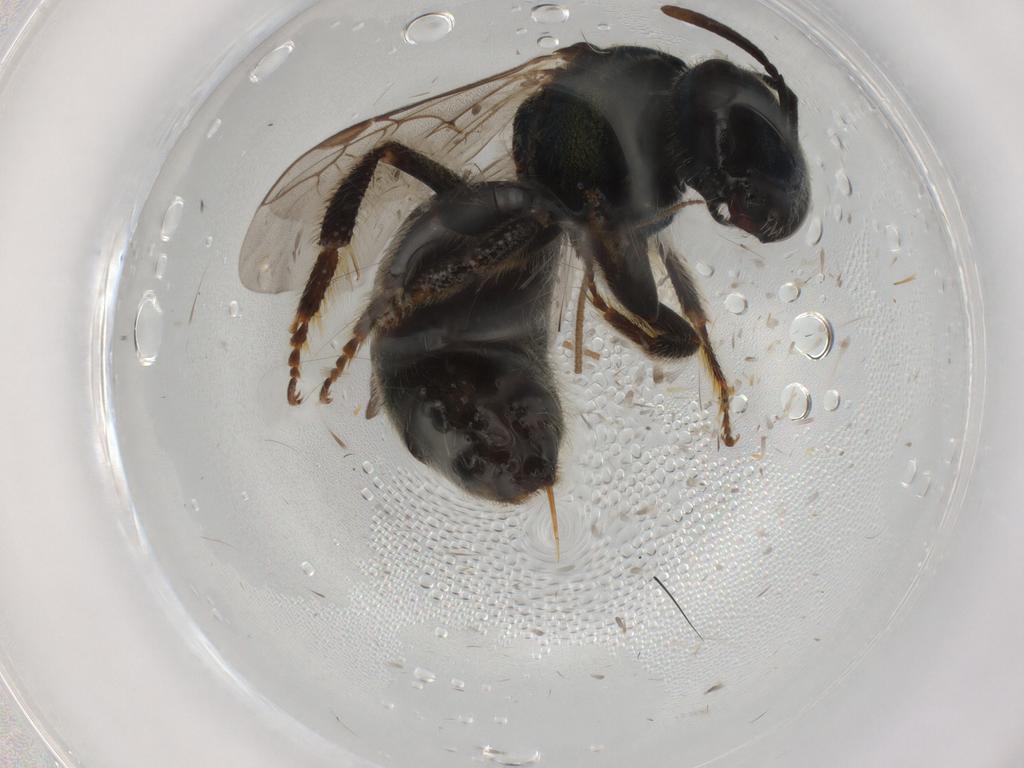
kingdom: Animalia
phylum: Arthropoda
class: Insecta
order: Hymenoptera
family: Halictidae
